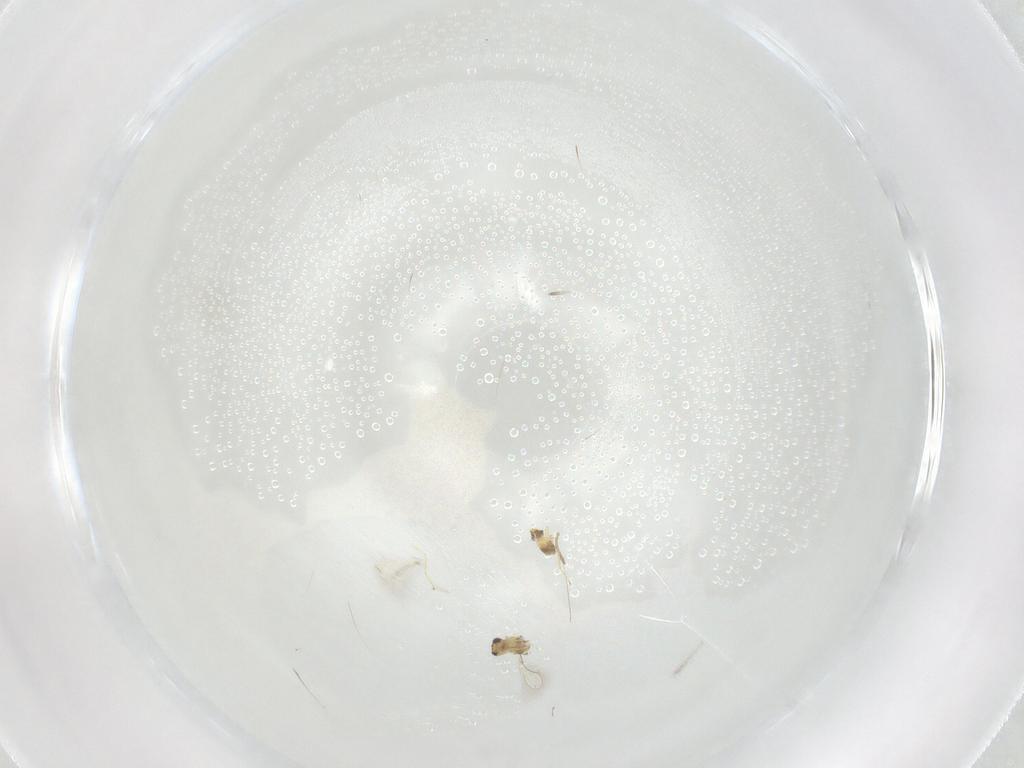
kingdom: Animalia
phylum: Arthropoda
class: Insecta
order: Hymenoptera
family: Mymaridae
